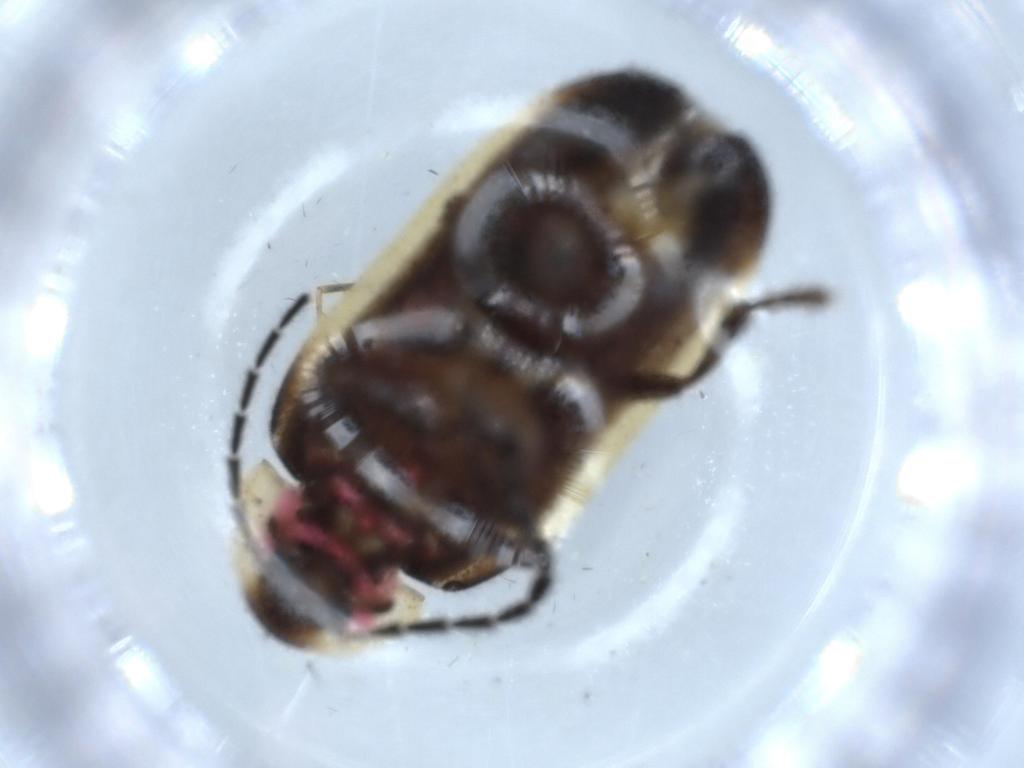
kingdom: Animalia
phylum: Arthropoda
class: Insecta
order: Coleoptera
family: Lampyridae
